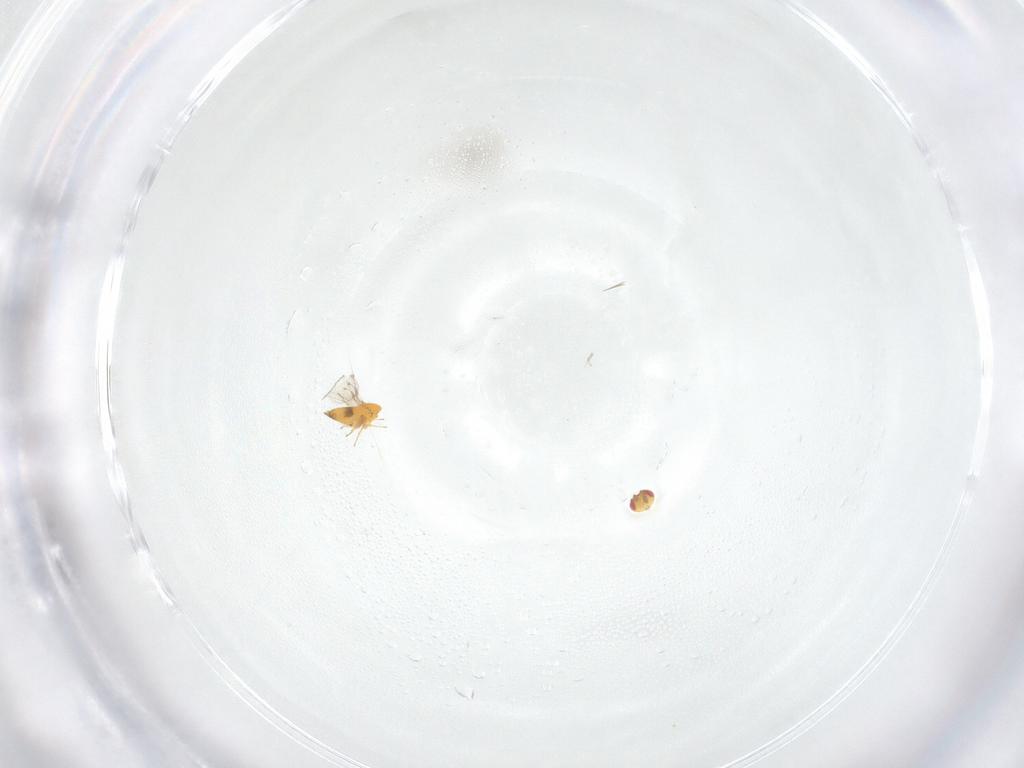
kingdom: Animalia
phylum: Arthropoda
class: Insecta
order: Hymenoptera
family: Trichogrammatidae
